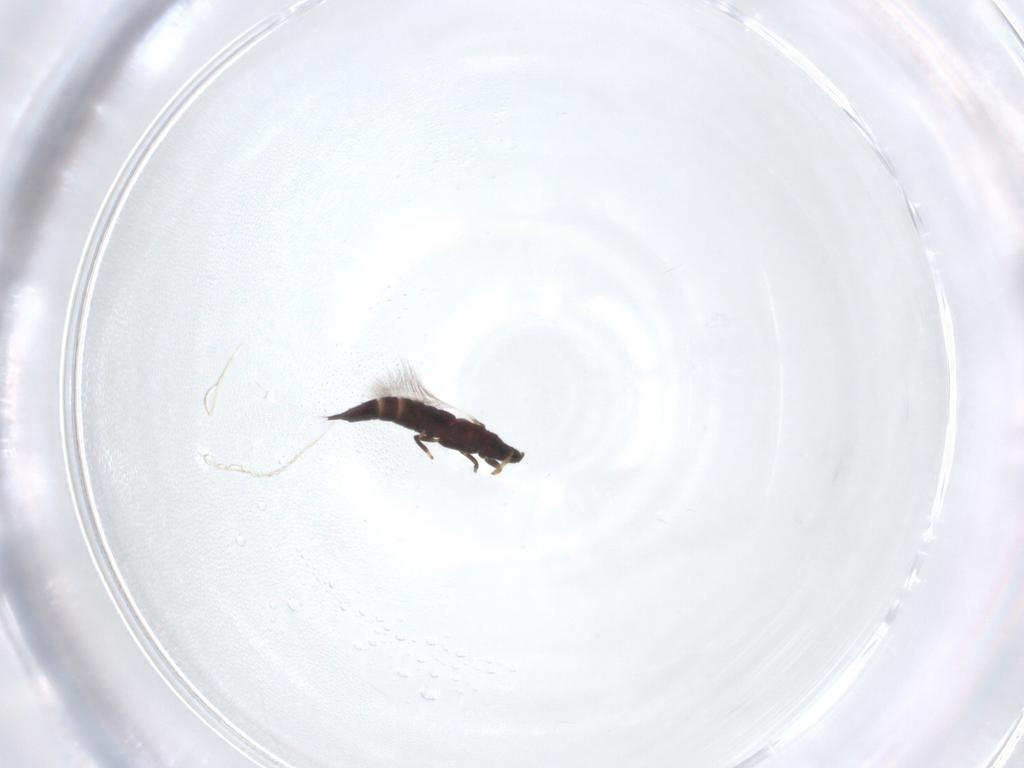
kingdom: Animalia
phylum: Arthropoda
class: Insecta
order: Thysanoptera
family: Phlaeothripidae
